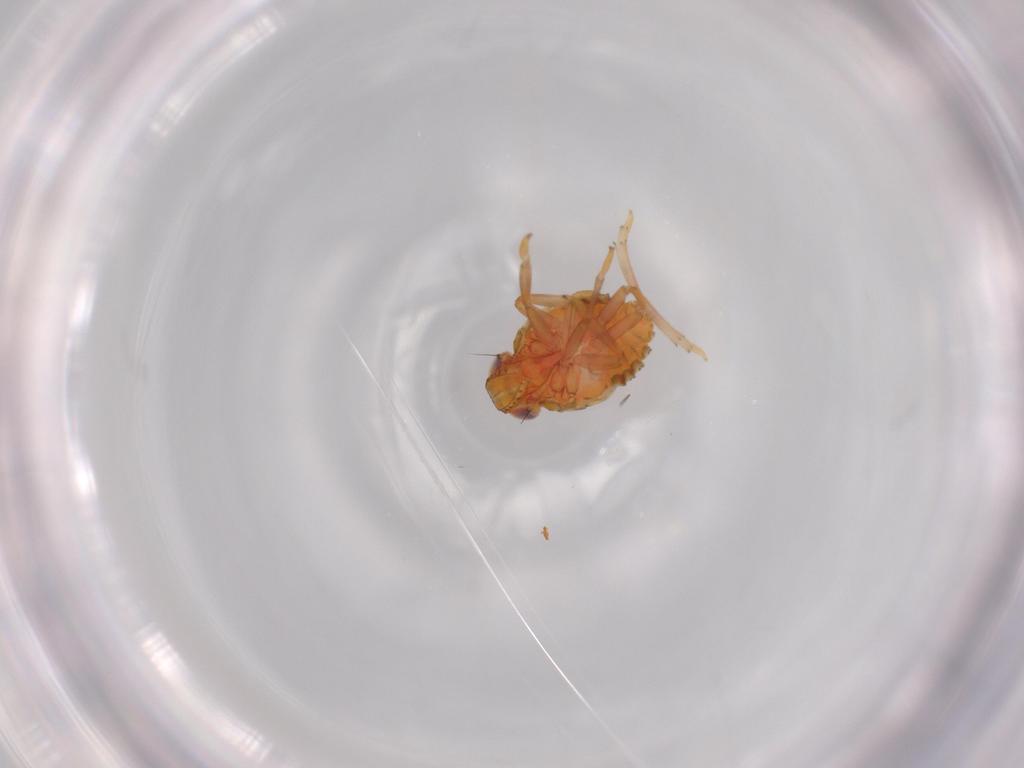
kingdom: Animalia
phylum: Arthropoda
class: Insecta
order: Hemiptera
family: Issidae
